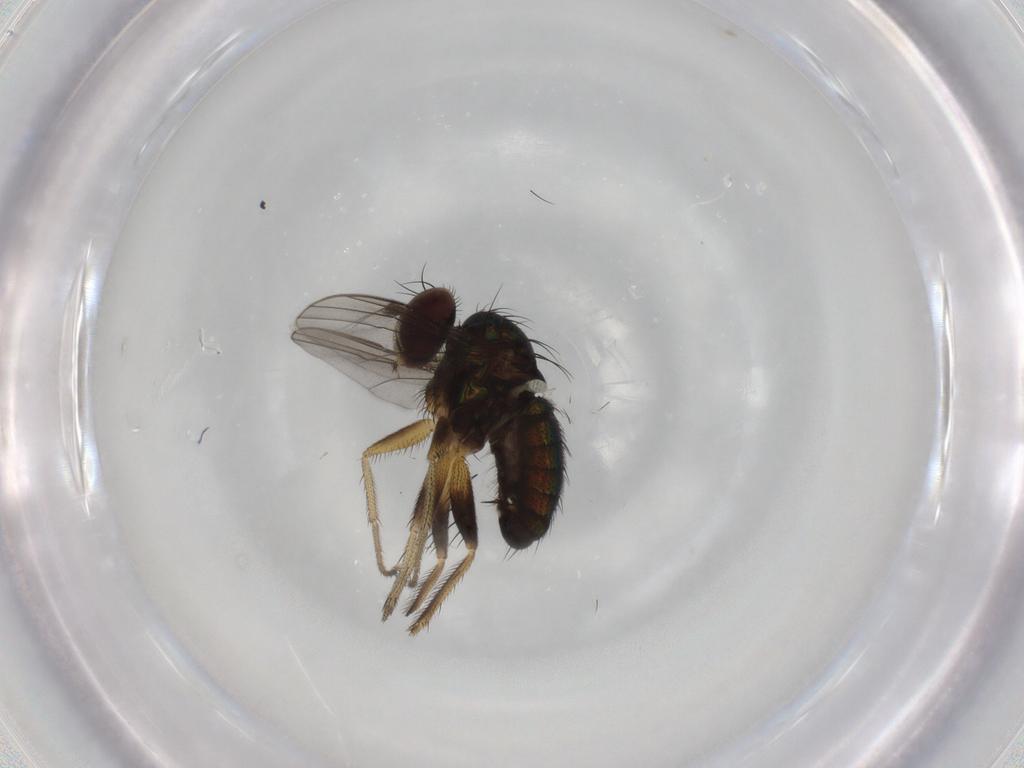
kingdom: Animalia
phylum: Arthropoda
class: Insecta
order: Diptera
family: Dolichopodidae
